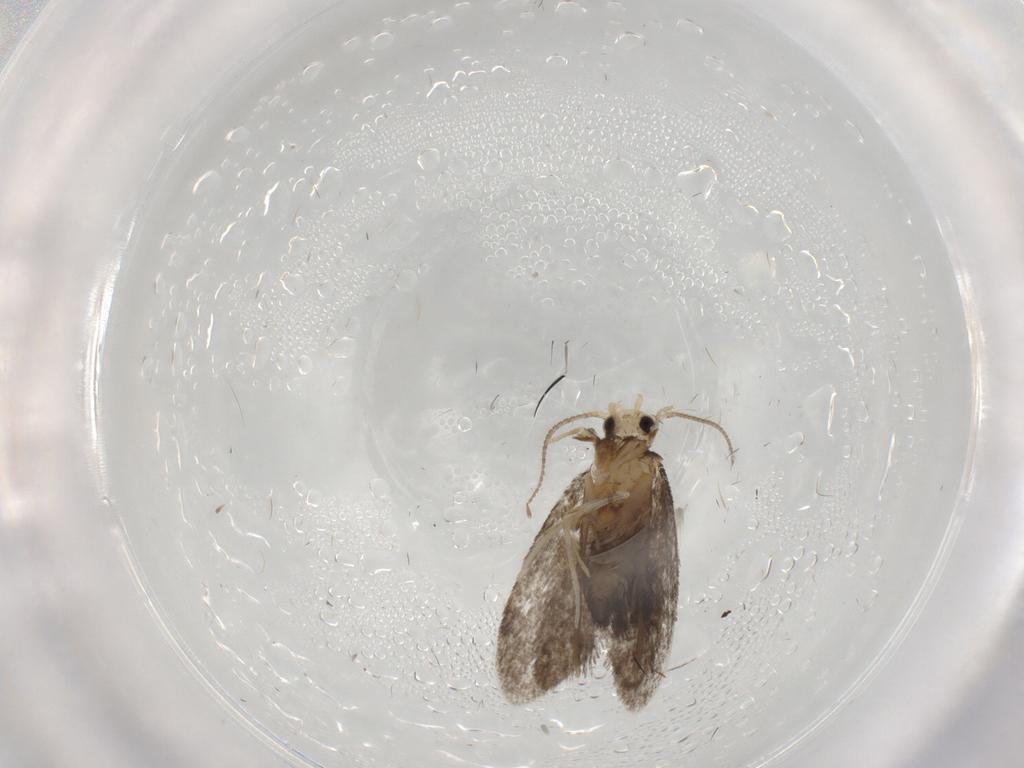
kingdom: Animalia
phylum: Arthropoda
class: Insecta
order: Lepidoptera
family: Psychidae
